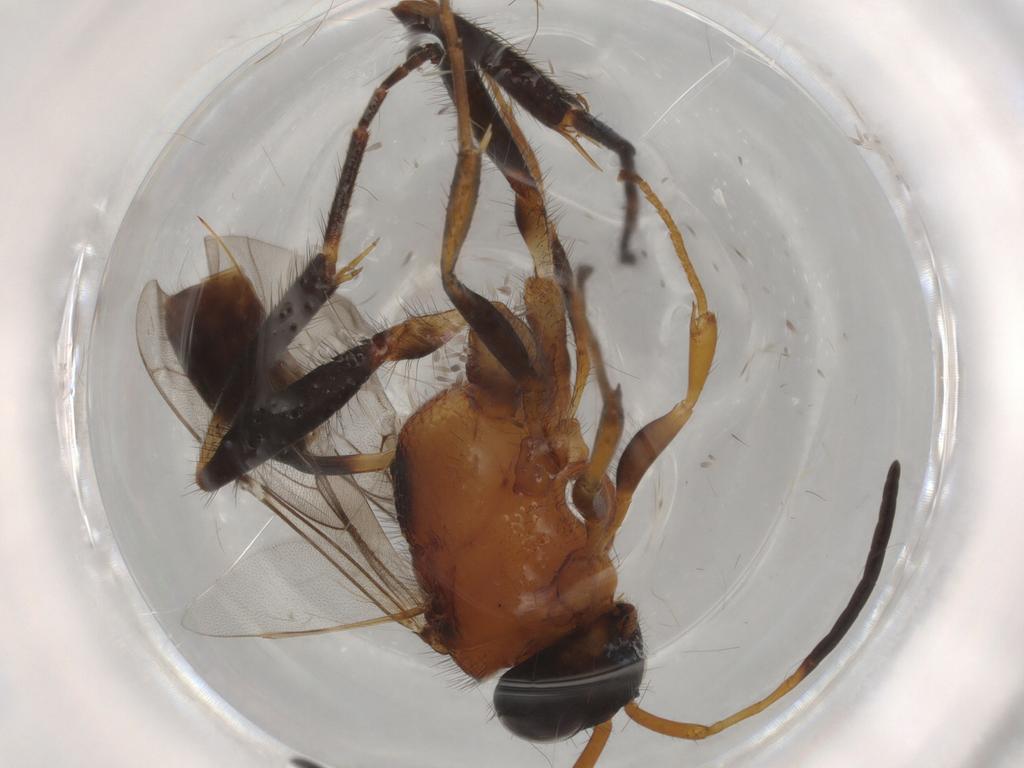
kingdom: Animalia
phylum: Arthropoda
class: Insecta
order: Hymenoptera
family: Evaniidae
